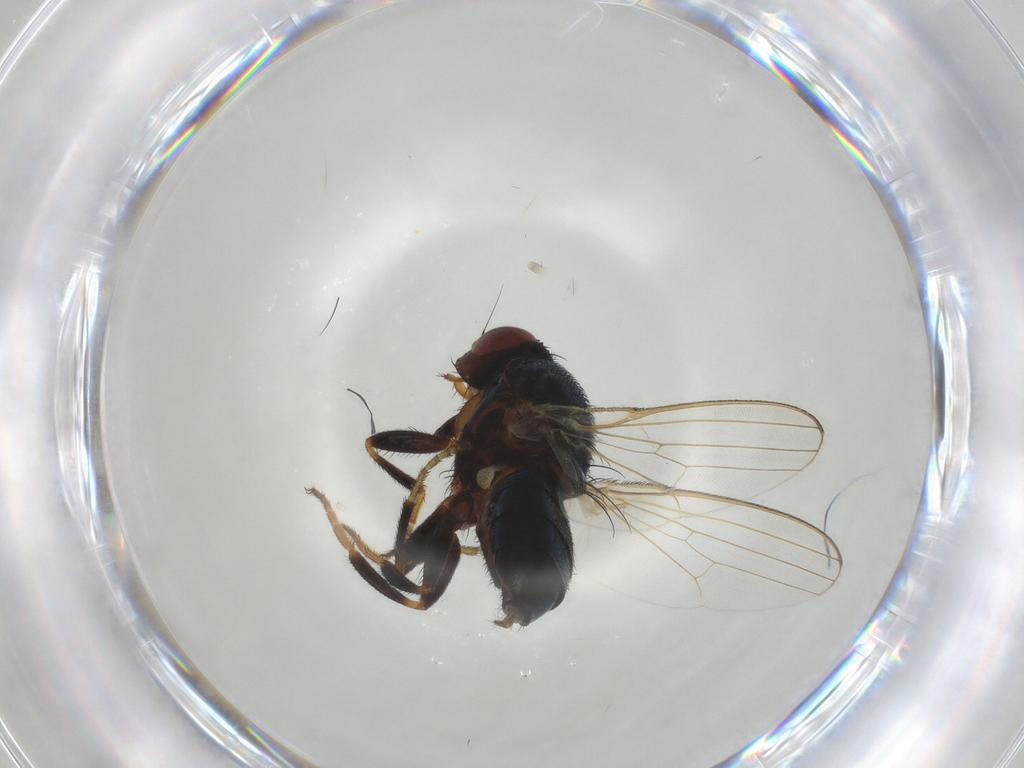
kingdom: Animalia
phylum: Arthropoda
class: Insecta
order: Diptera
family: Milichiidae
